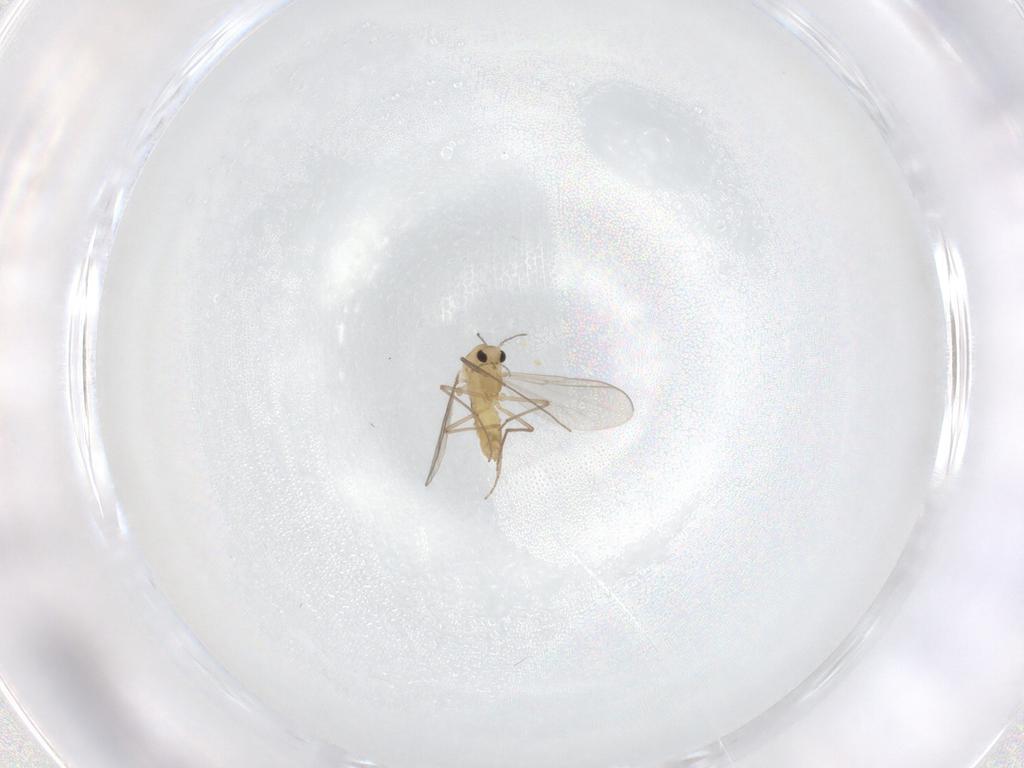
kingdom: Animalia
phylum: Arthropoda
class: Insecta
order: Diptera
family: Chironomidae
